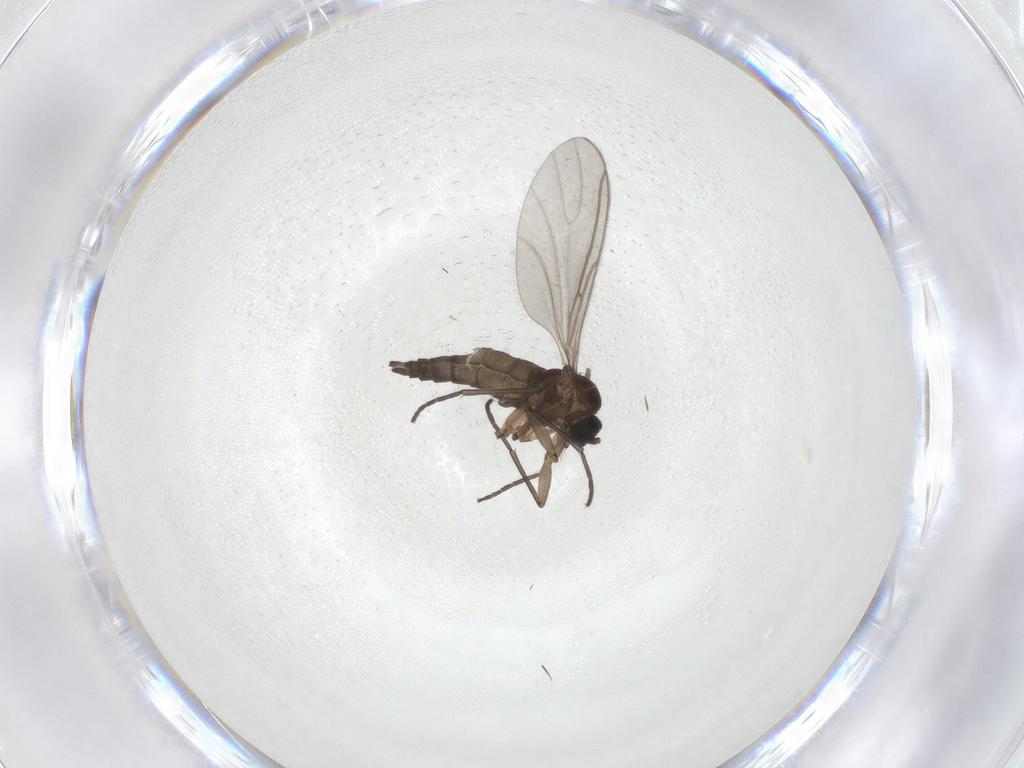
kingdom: Animalia
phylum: Arthropoda
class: Insecta
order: Diptera
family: Sciaridae
